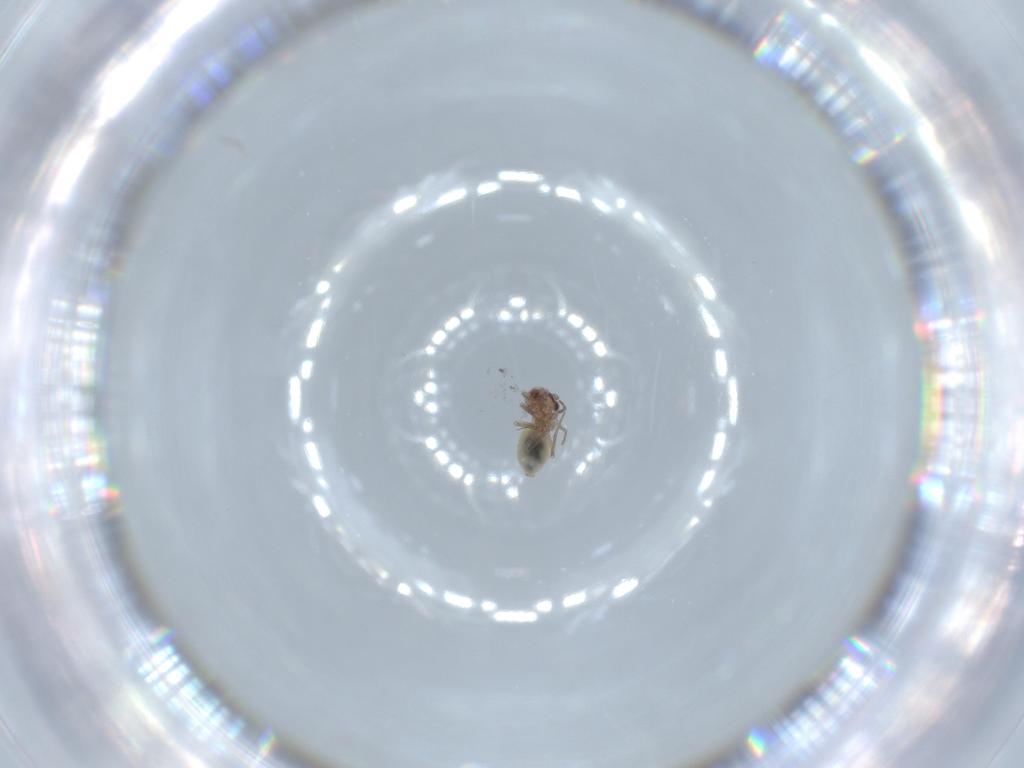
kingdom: Animalia
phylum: Arthropoda
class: Insecta
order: Psocodea
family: Lepidopsocidae
